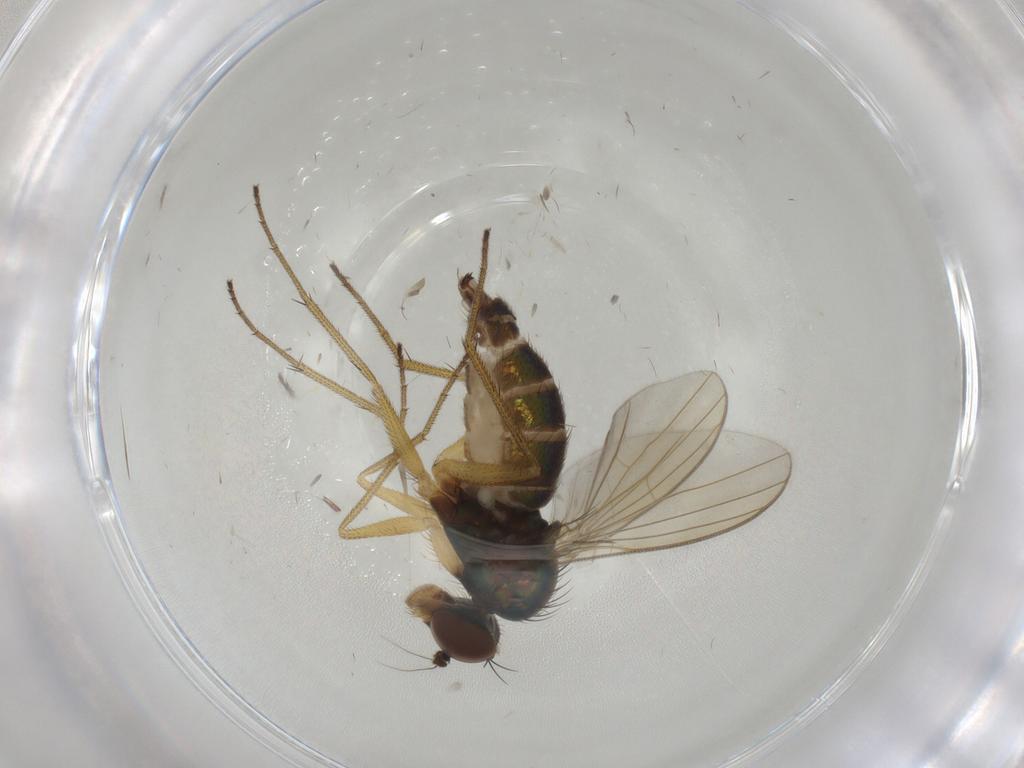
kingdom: Animalia
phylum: Arthropoda
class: Insecta
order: Diptera
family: Dolichopodidae
